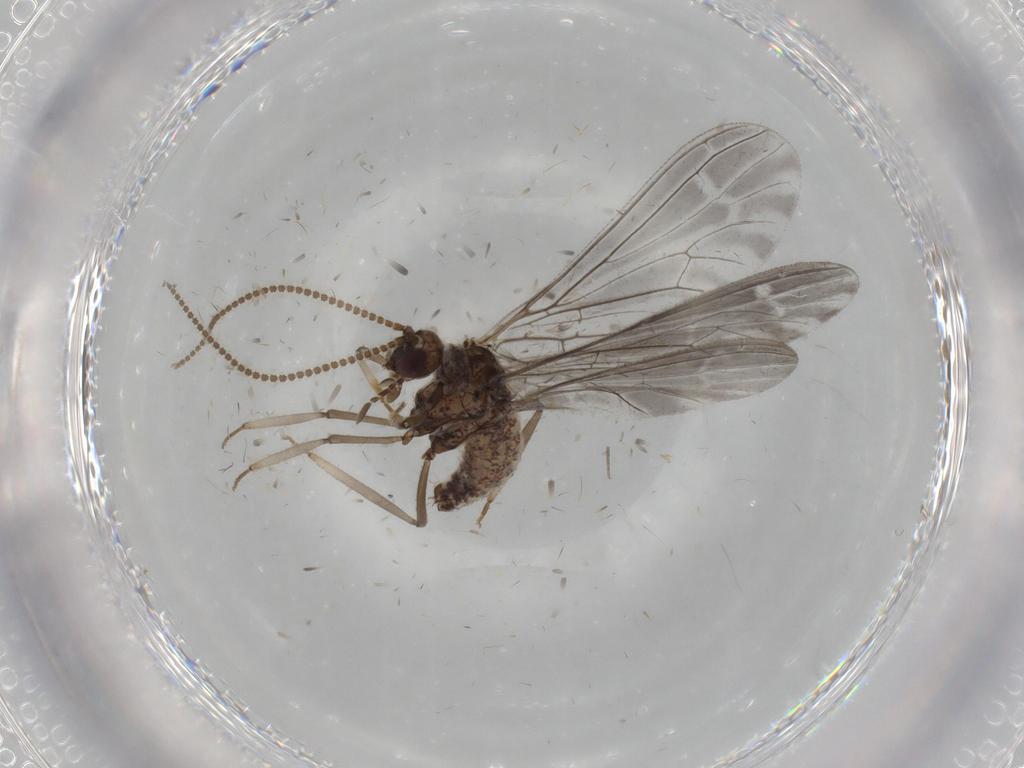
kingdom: Animalia
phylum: Arthropoda
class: Insecta
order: Neuroptera
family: Coniopterygidae
